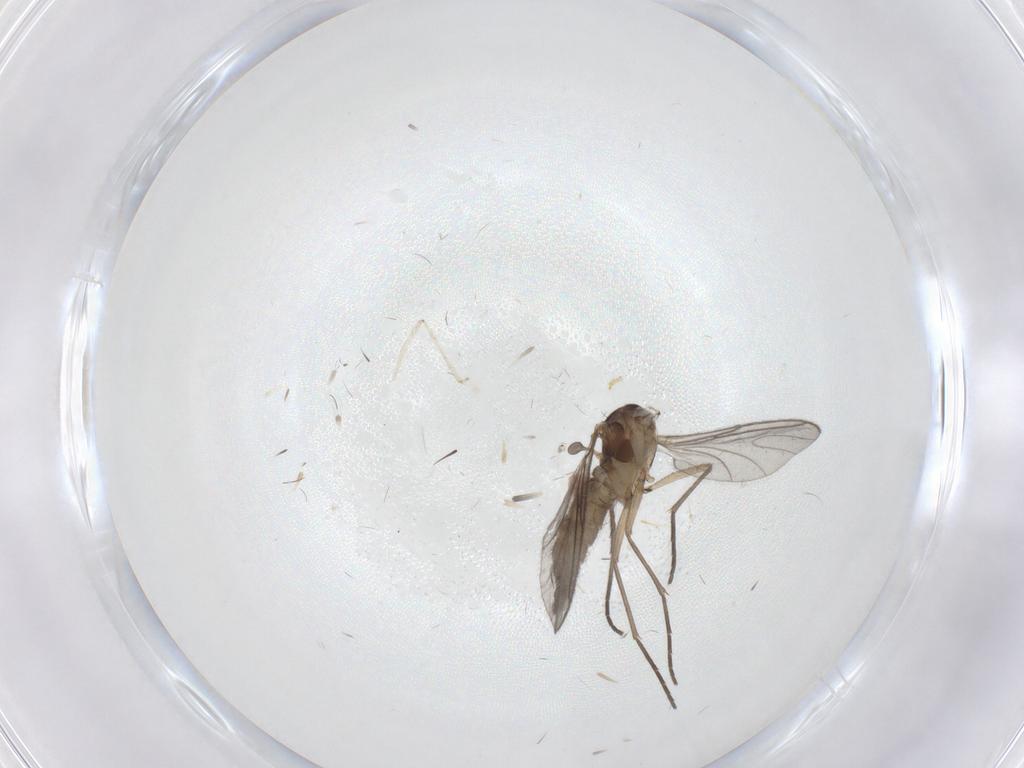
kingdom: Animalia
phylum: Arthropoda
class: Insecta
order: Diptera
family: Sciaridae
